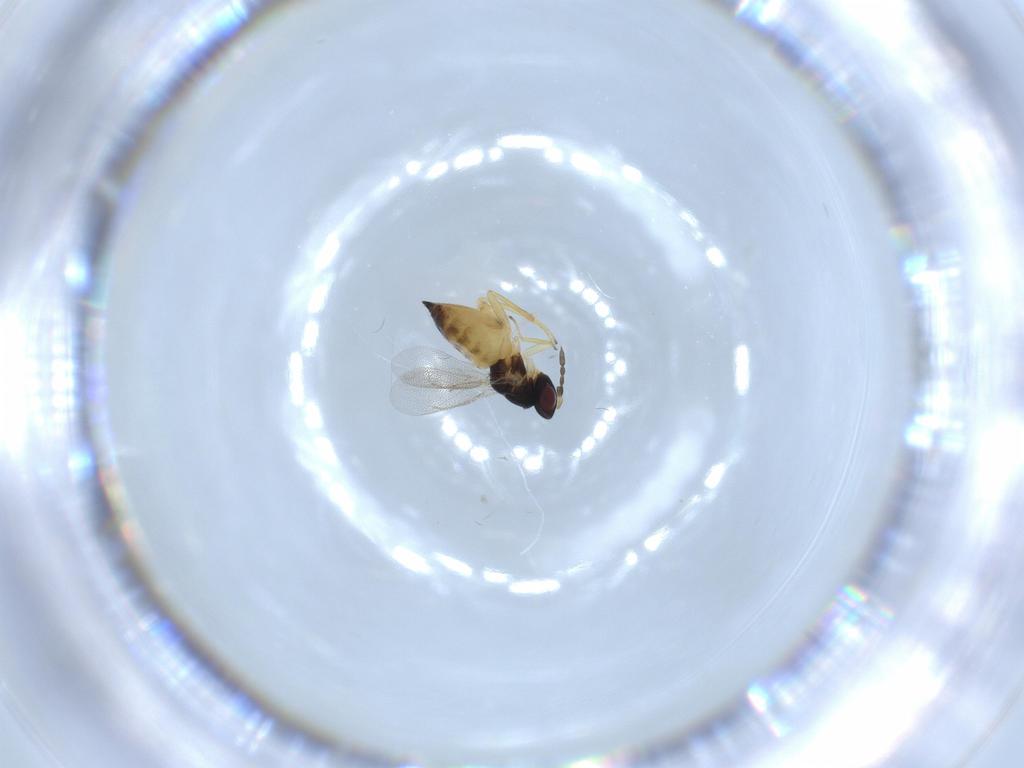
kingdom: Animalia
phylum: Arthropoda
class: Insecta
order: Hymenoptera
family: Eulophidae
